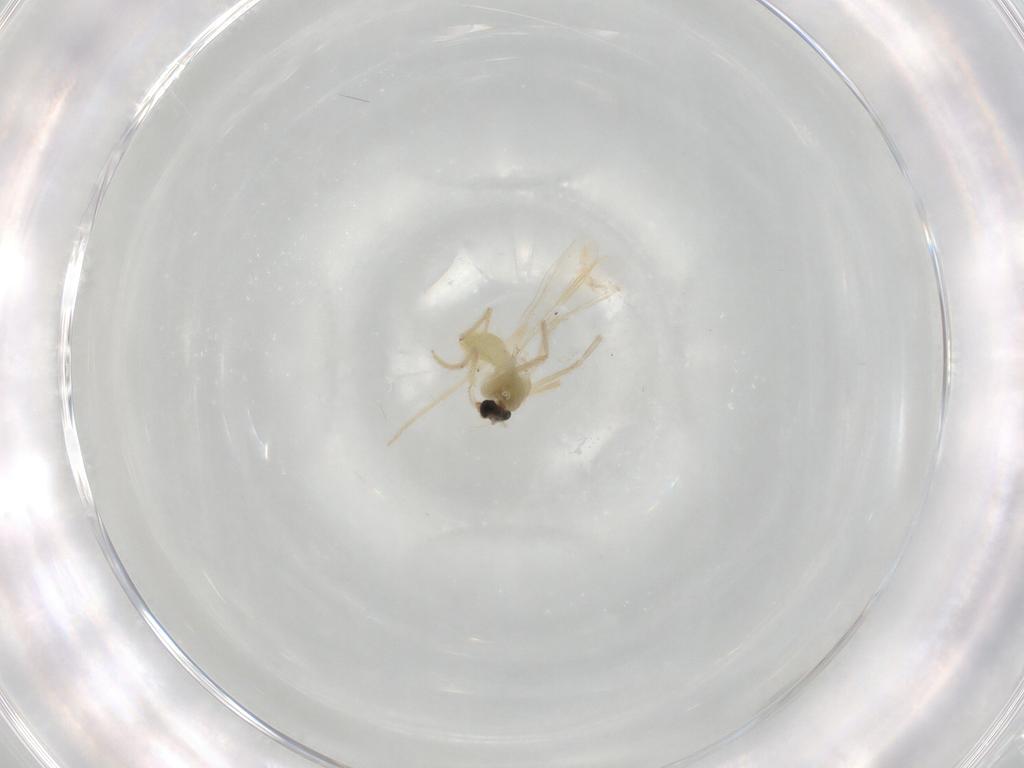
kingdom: Animalia
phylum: Arthropoda
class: Insecta
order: Diptera
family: Chironomidae
